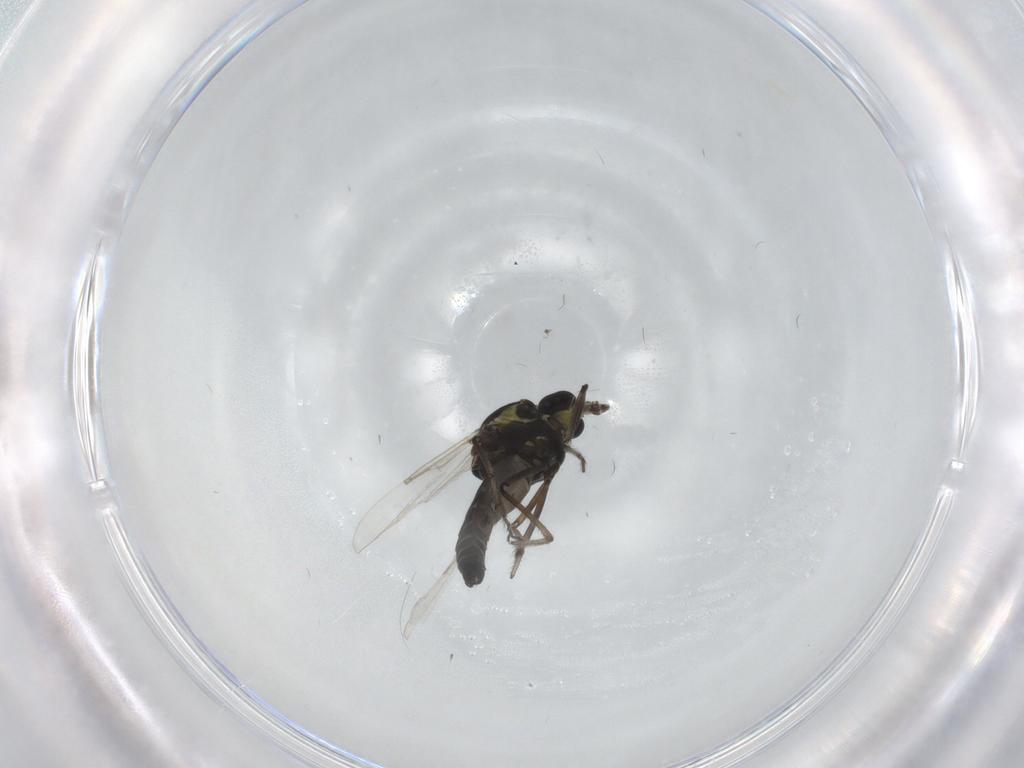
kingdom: Animalia
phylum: Arthropoda
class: Insecta
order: Diptera
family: Ceratopogonidae
